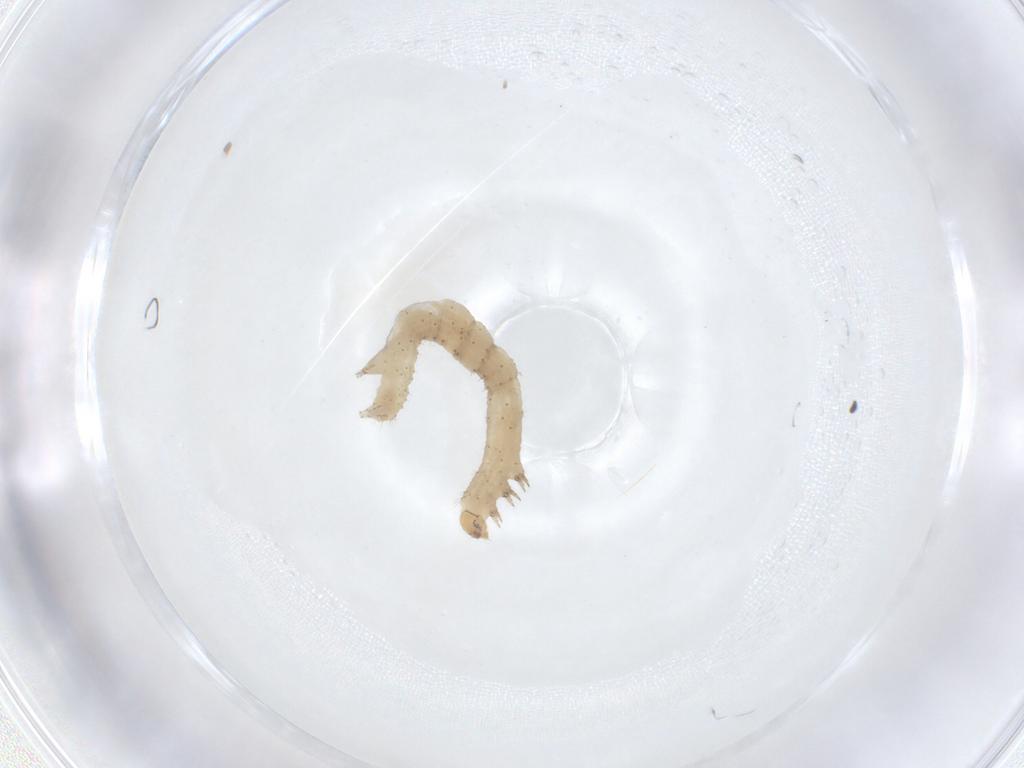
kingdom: Animalia
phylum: Arthropoda
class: Insecta
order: Lepidoptera
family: Geometridae
